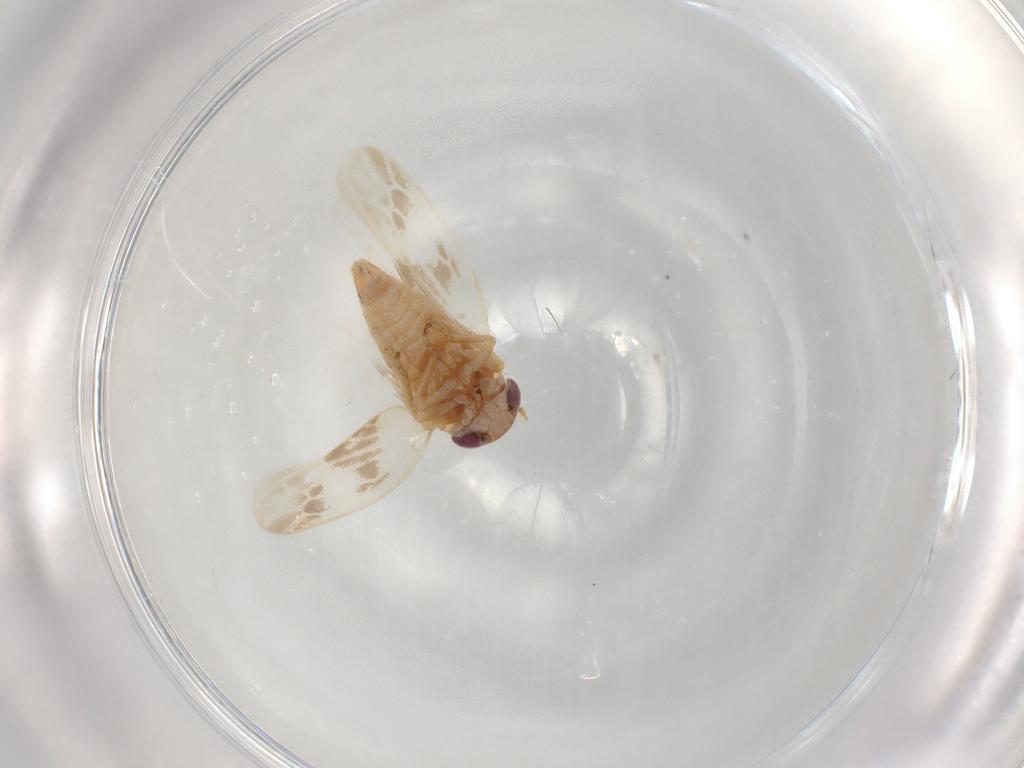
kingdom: Animalia
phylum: Arthropoda
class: Insecta
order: Hemiptera
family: Cicadellidae
